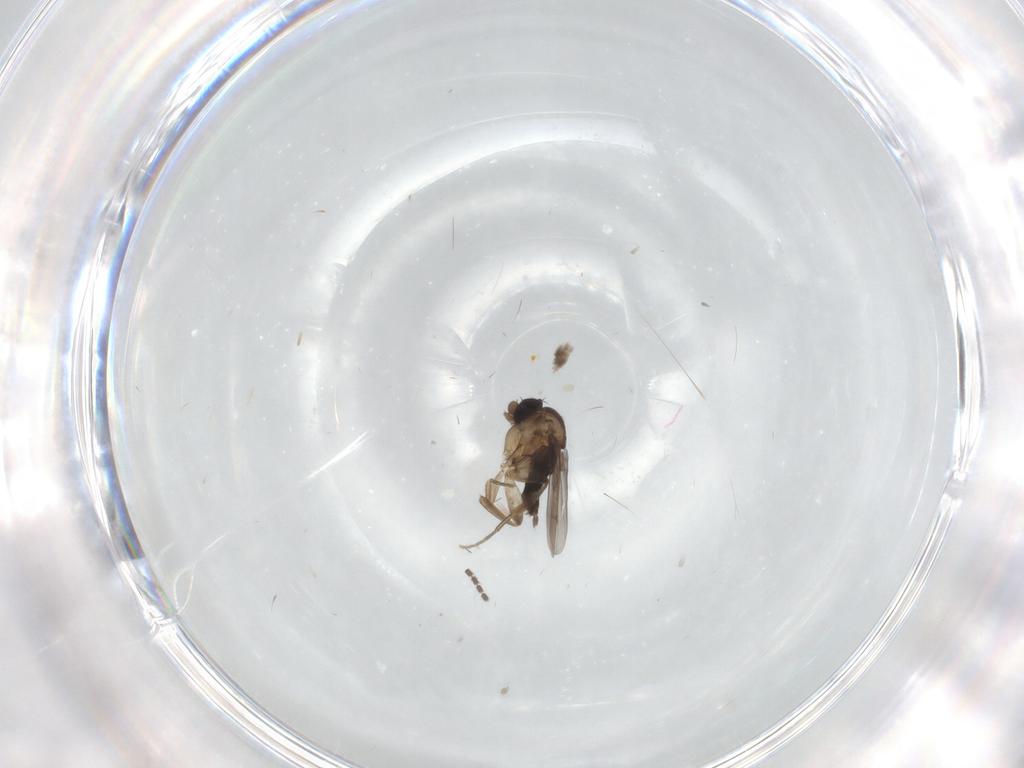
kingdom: Animalia
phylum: Arthropoda
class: Insecta
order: Diptera
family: Phoridae
